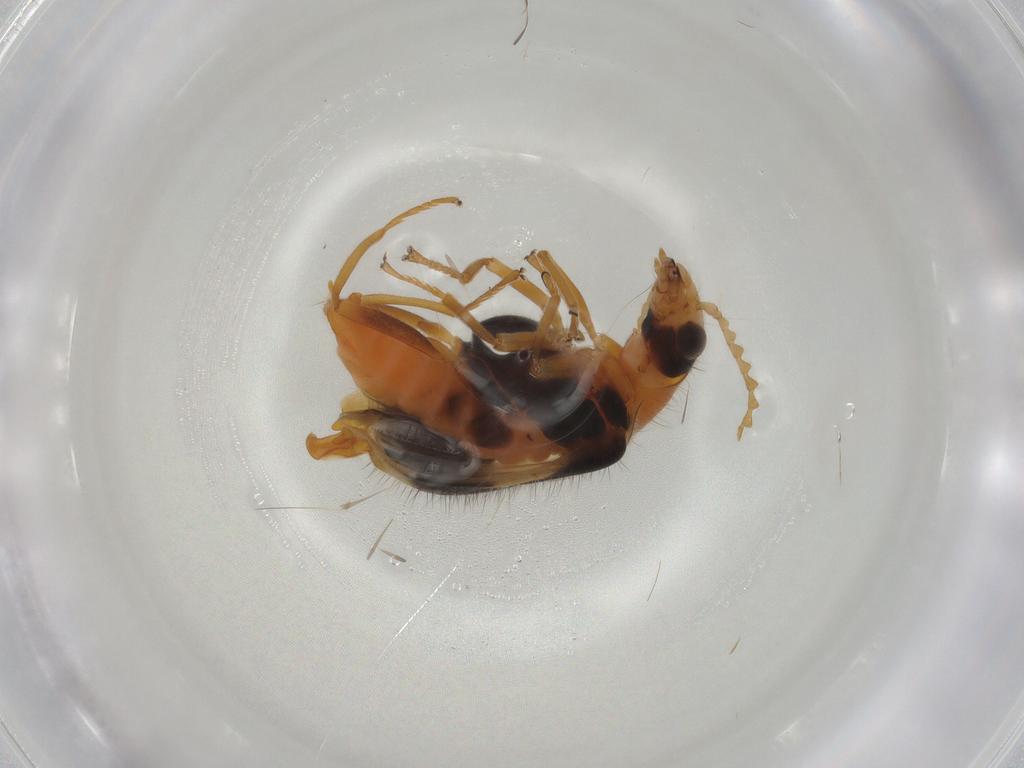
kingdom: Animalia
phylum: Arthropoda
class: Insecta
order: Coleoptera
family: Melyridae
